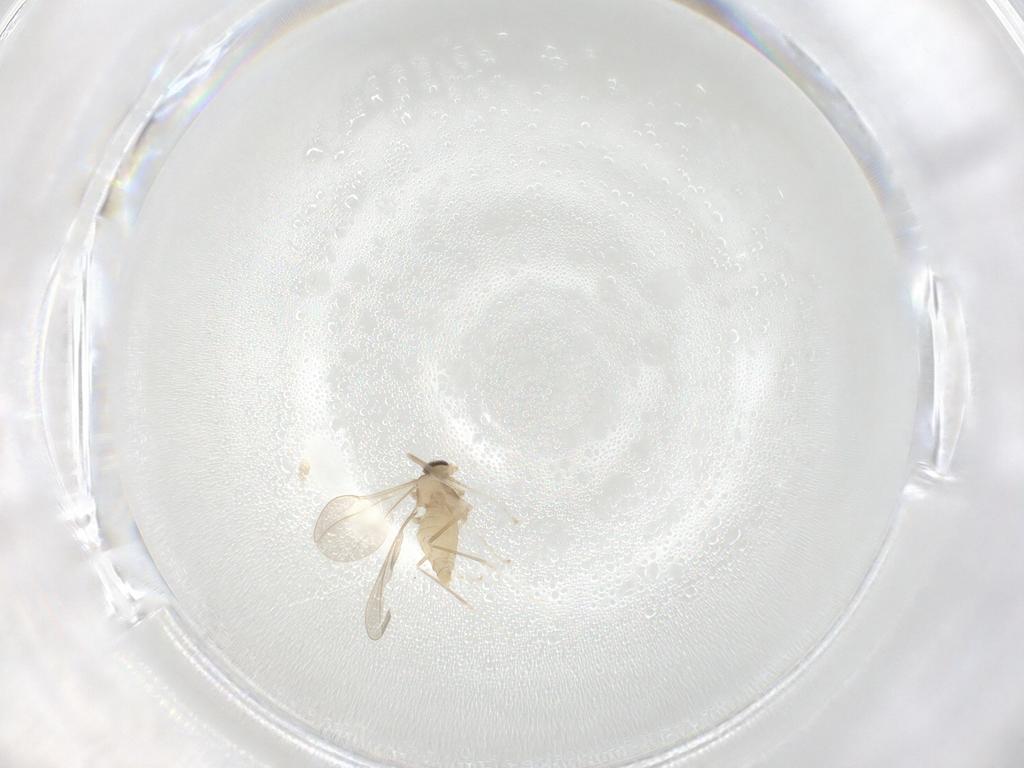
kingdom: Animalia
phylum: Arthropoda
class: Insecta
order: Diptera
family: Cecidomyiidae
